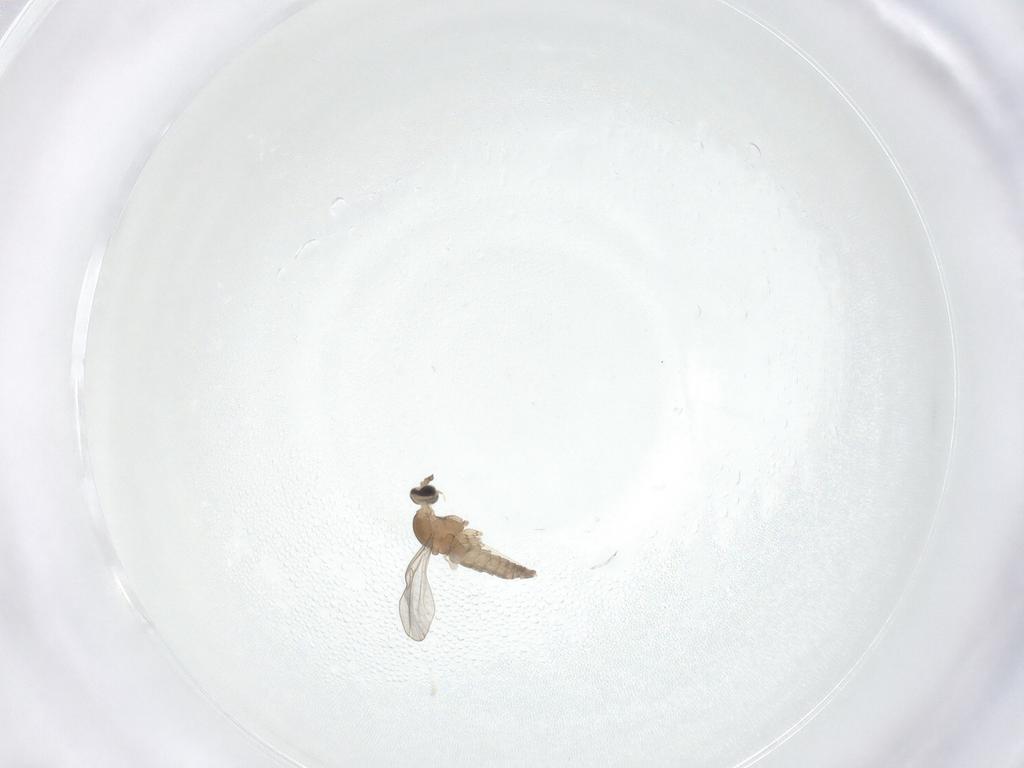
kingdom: Animalia
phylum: Arthropoda
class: Insecta
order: Diptera
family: Cecidomyiidae
